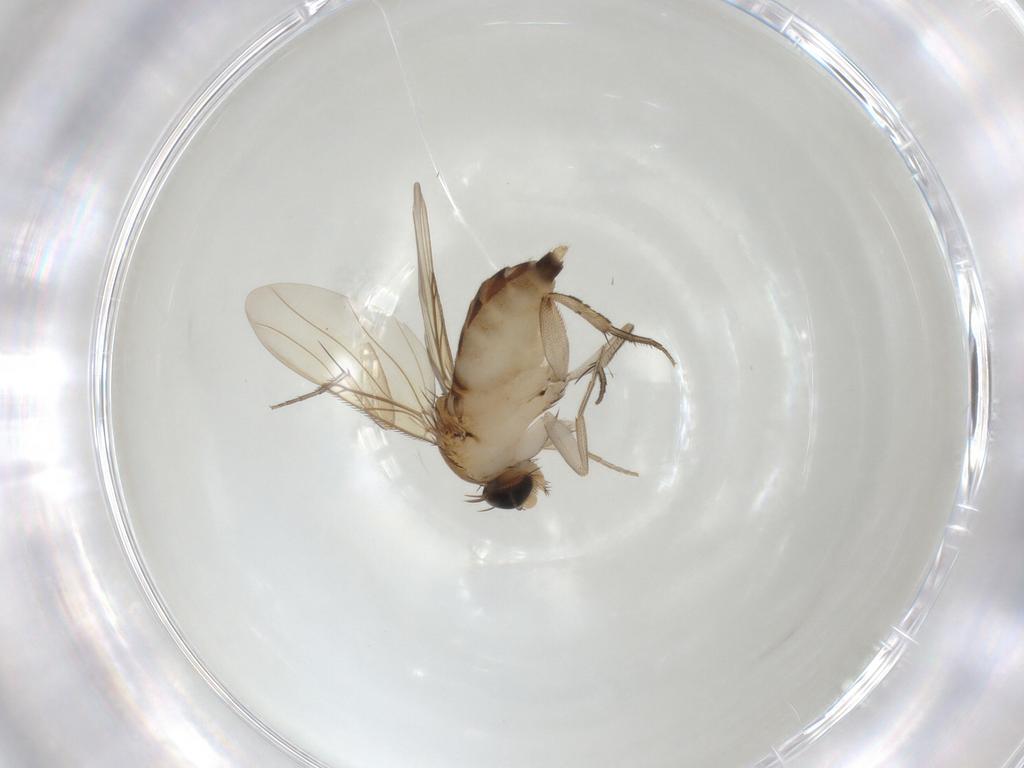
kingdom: Animalia
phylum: Arthropoda
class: Insecta
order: Diptera
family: Phoridae
